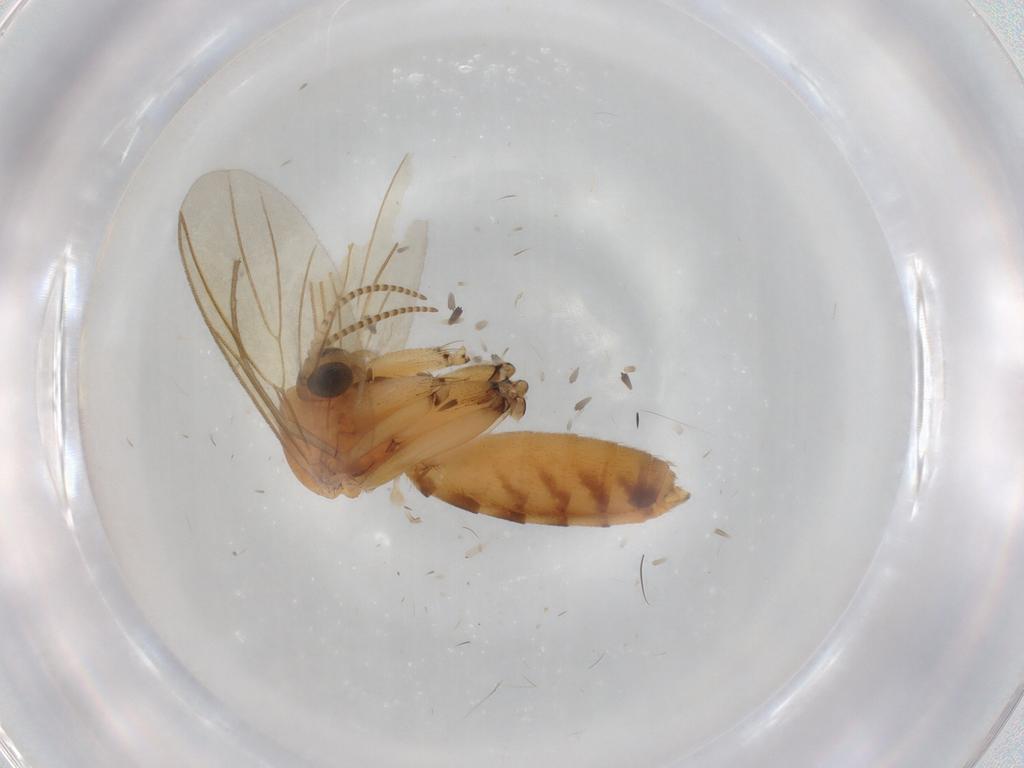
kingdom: Animalia
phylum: Arthropoda
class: Insecta
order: Diptera
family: Mycetophilidae
